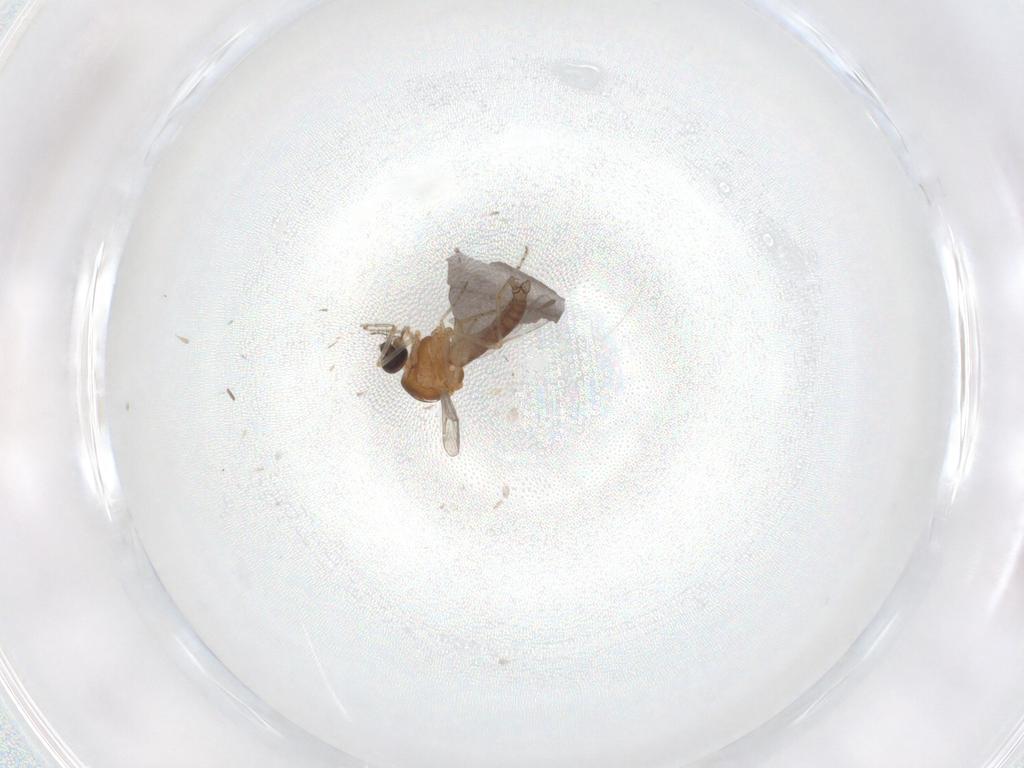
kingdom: Animalia
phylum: Arthropoda
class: Insecta
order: Diptera
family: Ceratopogonidae
